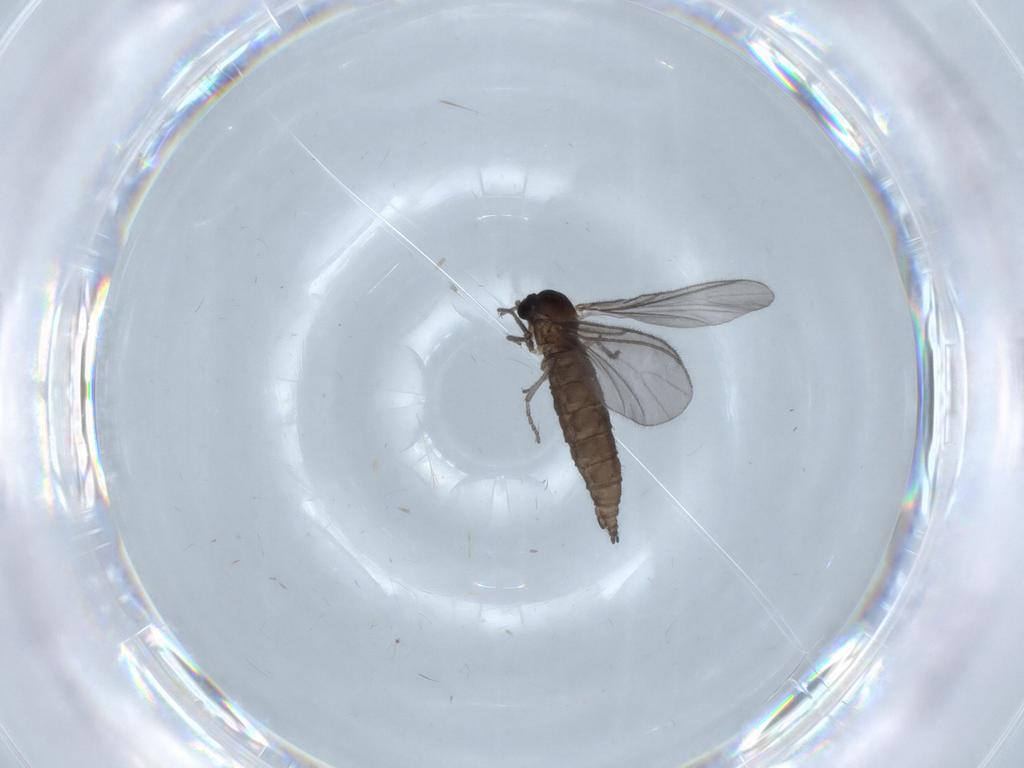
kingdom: Animalia
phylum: Arthropoda
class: Insecta
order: Diptera
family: Sciaridae
